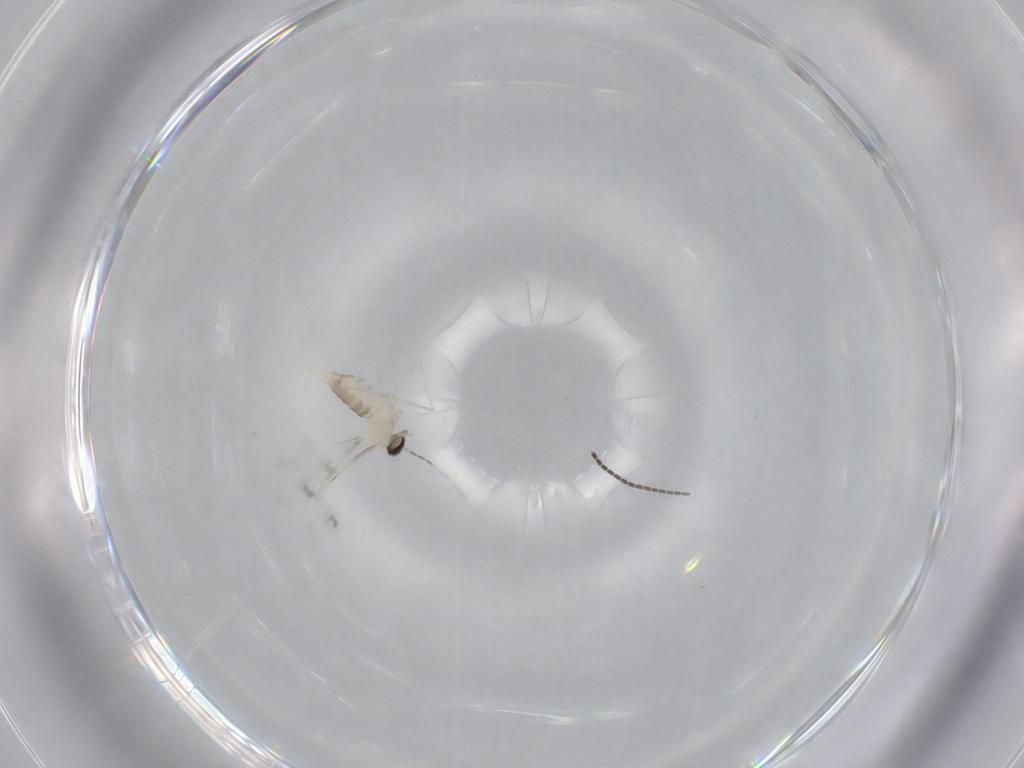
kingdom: Animalia
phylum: Arthropoda
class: Insecta
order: Diptera
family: Cecidomyiidae
